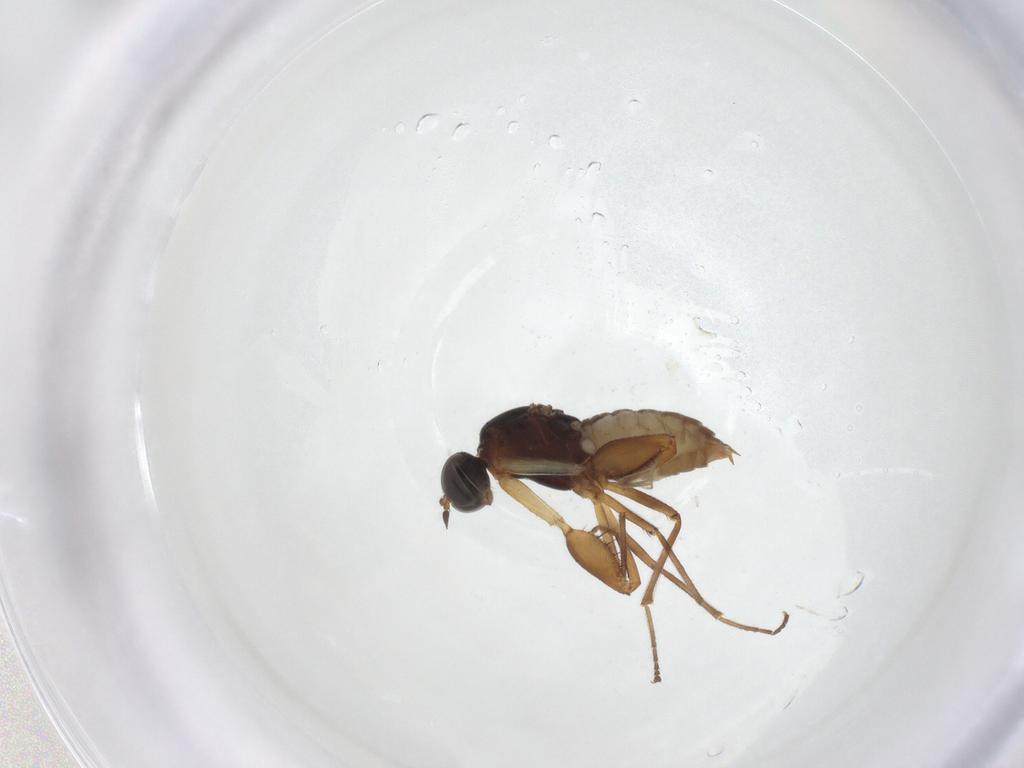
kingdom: Animalia
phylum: Arthropoda
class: Insecta
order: Diptera
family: Empididae
